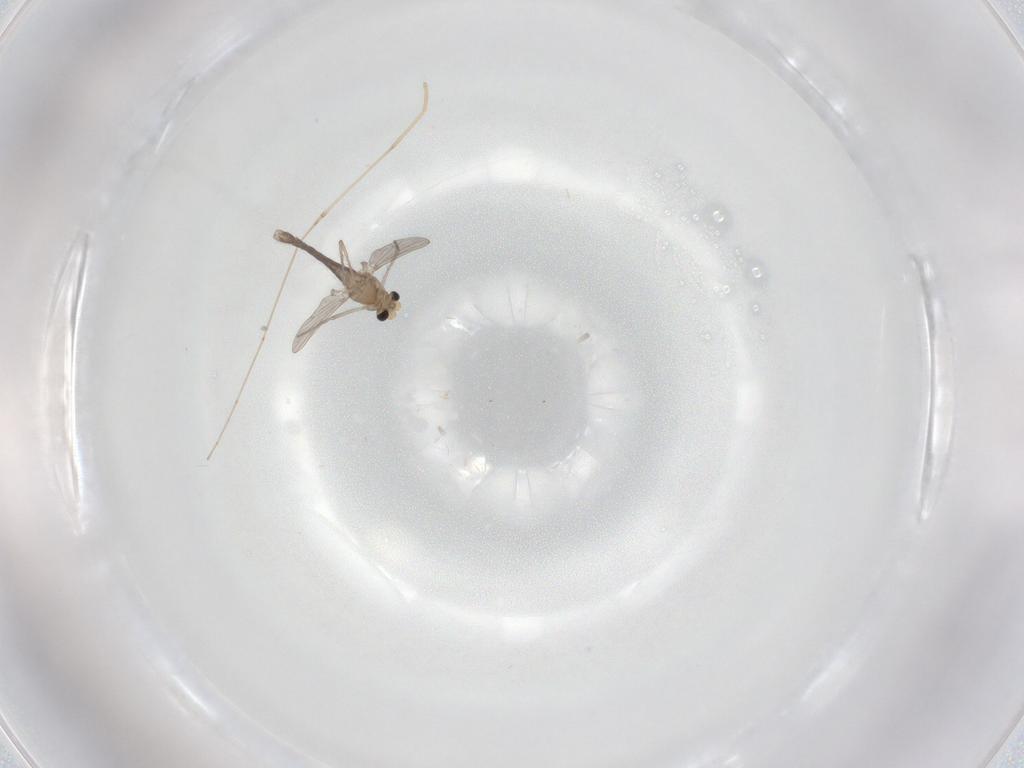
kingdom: Animalia
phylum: Arthropoda
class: Insecta
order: Diptera
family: Chironomidae
